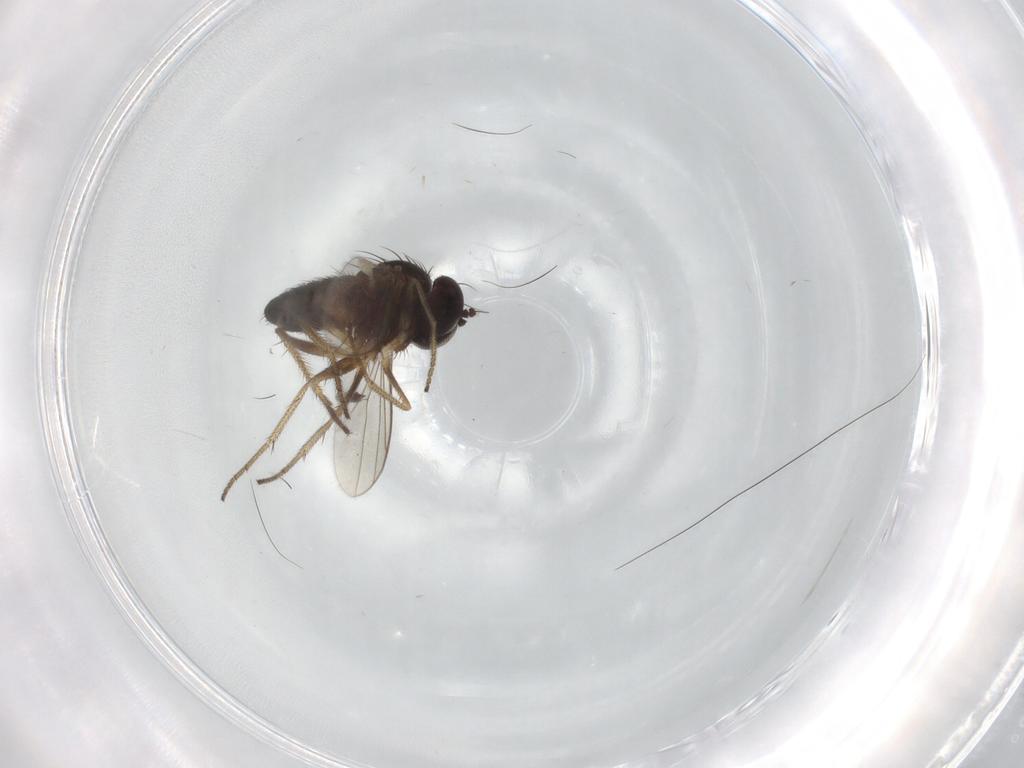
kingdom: Animalia
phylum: Arthropoda
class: Insecta
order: Diptera
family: Dolichopodidae
